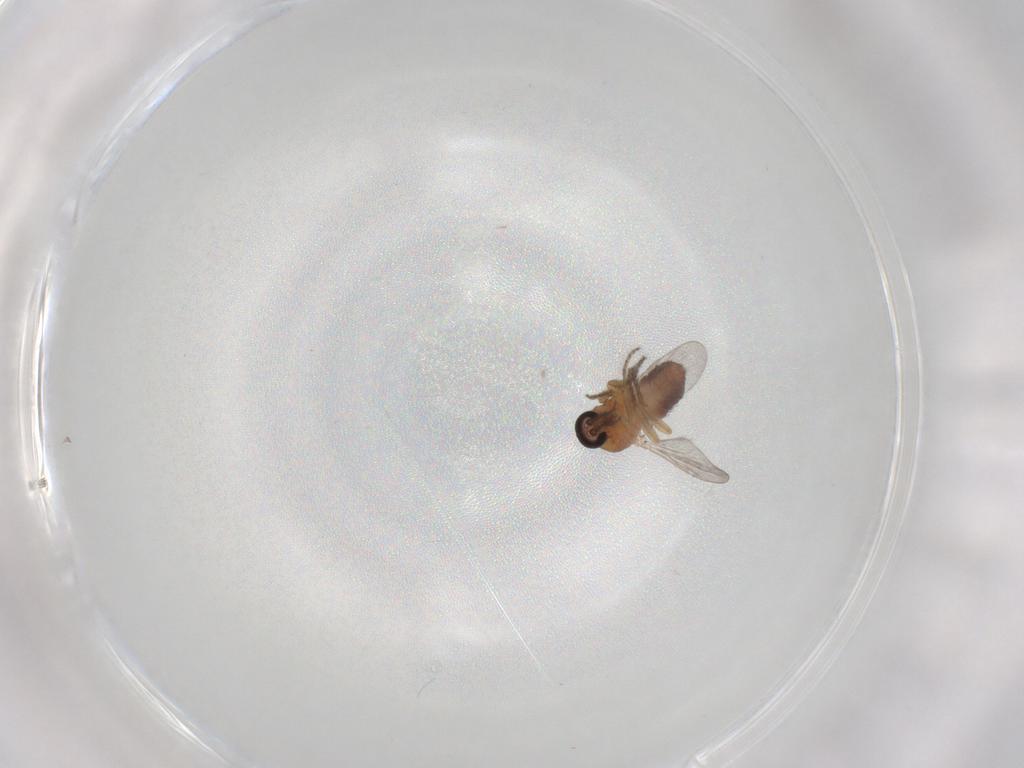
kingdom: Animalia
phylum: Arthropoda
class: Insecta
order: Diptera
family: Ceratopogonidae
